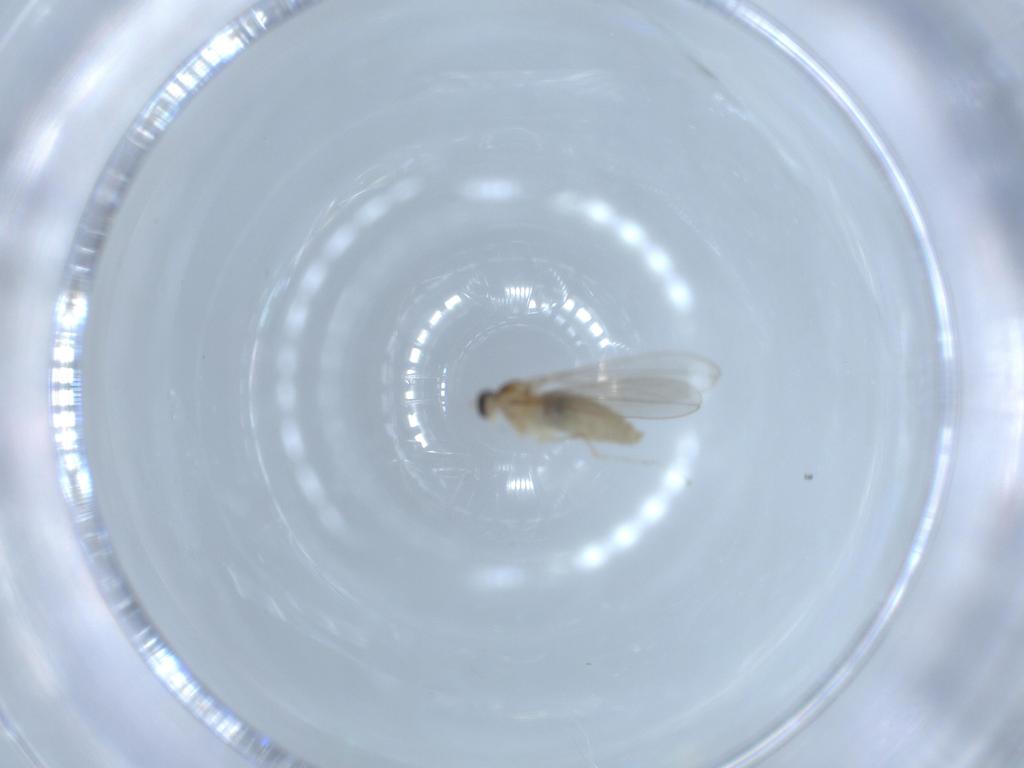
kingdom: Animalia
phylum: Arthropoda
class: Insecta
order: Diptera
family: Cecidomyiidae
